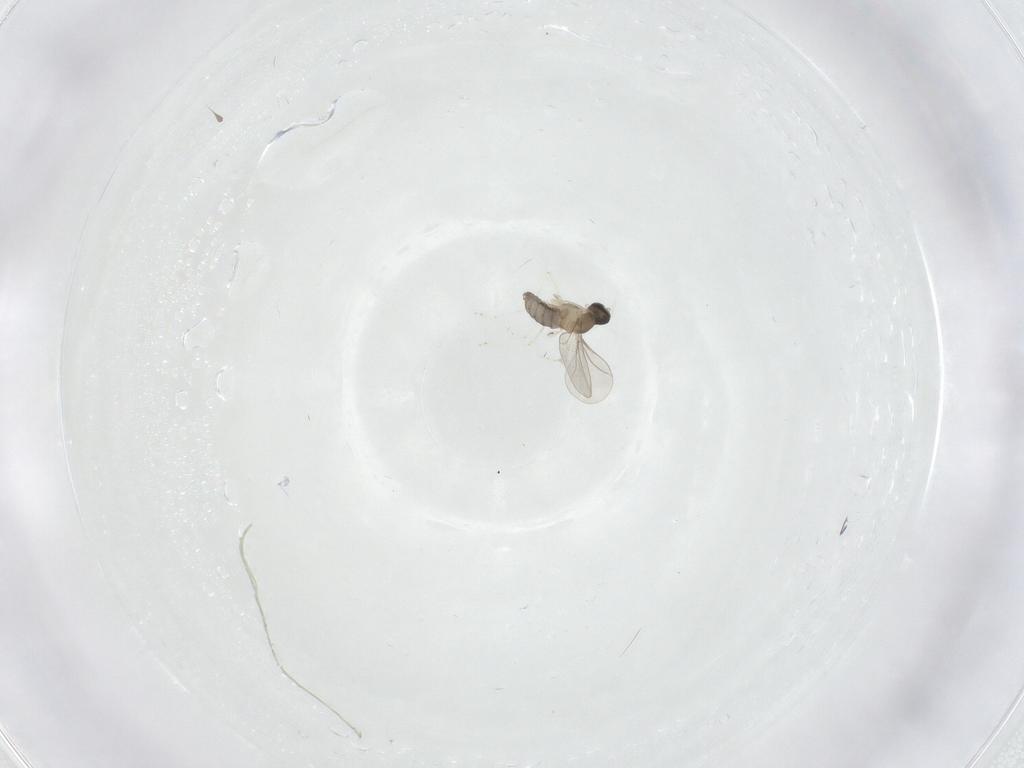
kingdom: Animalia
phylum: Arthropoda
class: Insecta
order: Diptera
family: Cecidomyiidae
